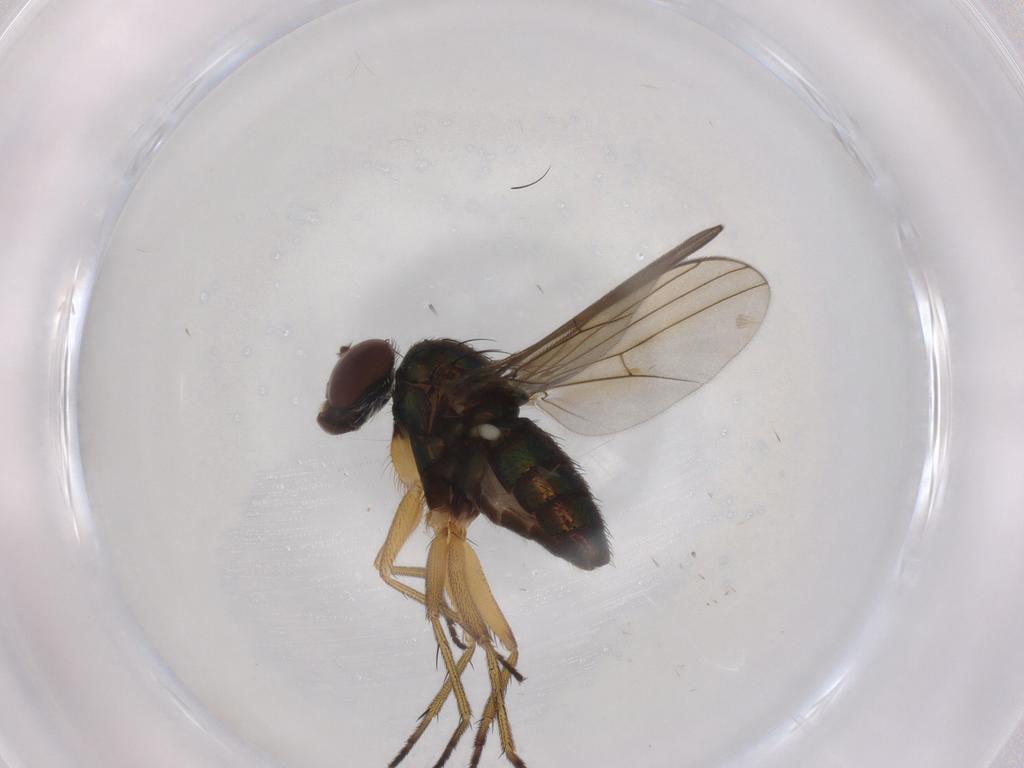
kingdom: Animalia
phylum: Arthropoda
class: Insecta
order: Diptera
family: Dolichopodidae
